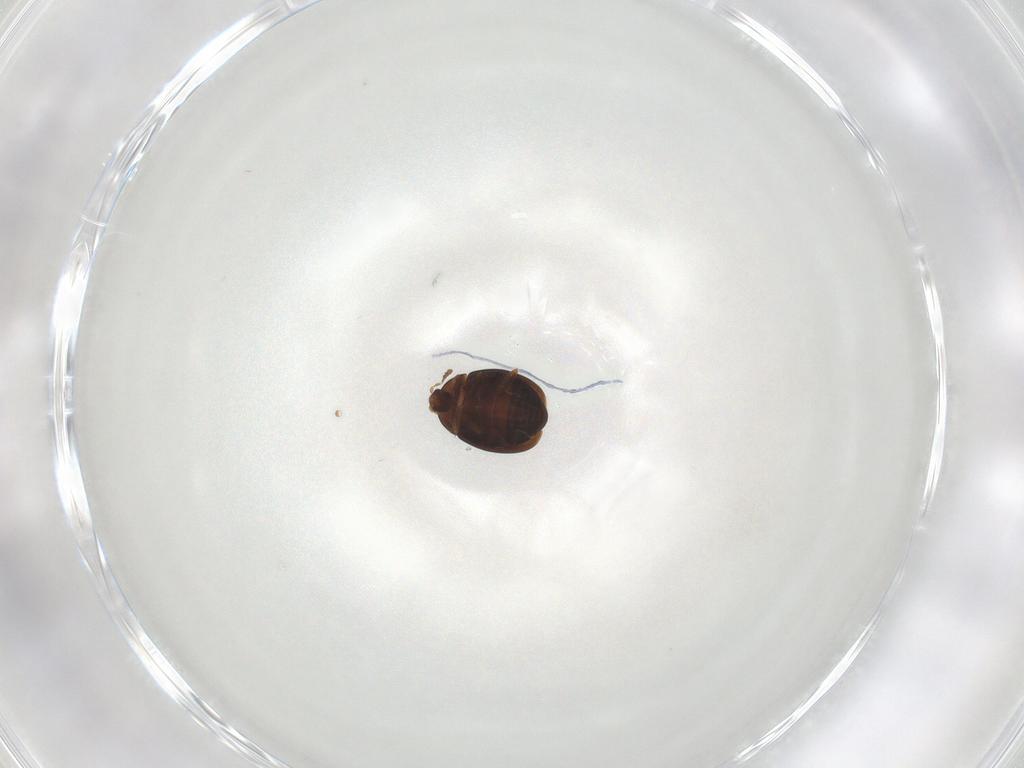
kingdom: Animalia
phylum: Arthropoda
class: Insecta
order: Coleoptera
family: Corylophidae
